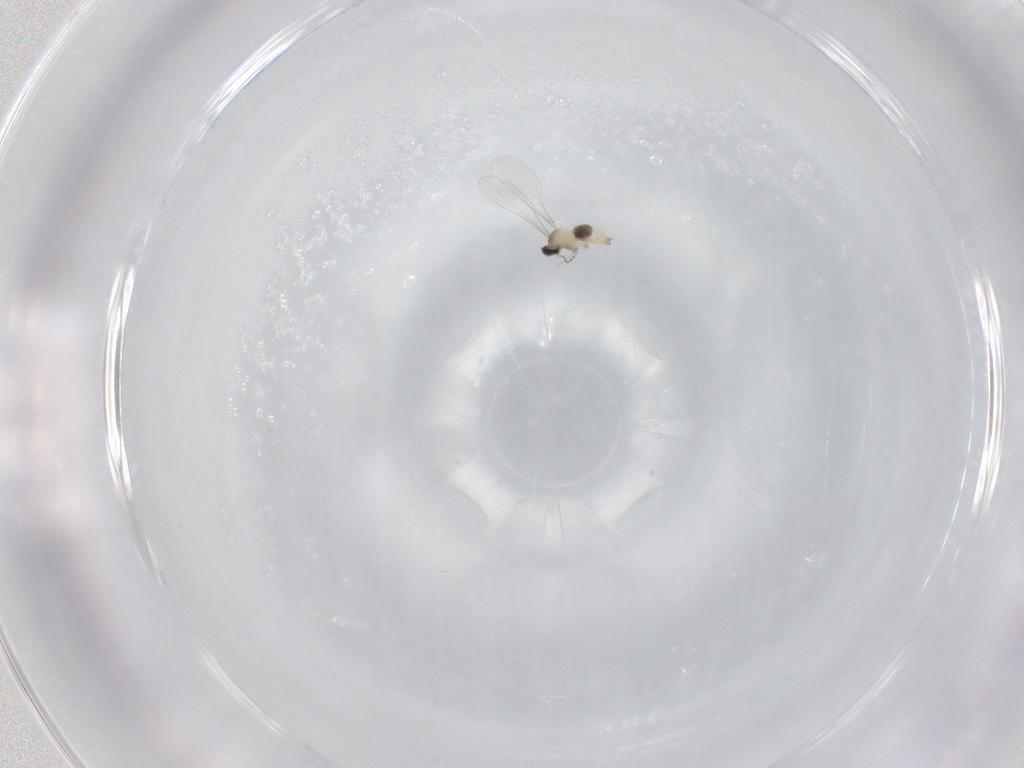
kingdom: Animalia
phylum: Arthropoda
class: Insecta
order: Diptera
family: Cecidomyiidae
